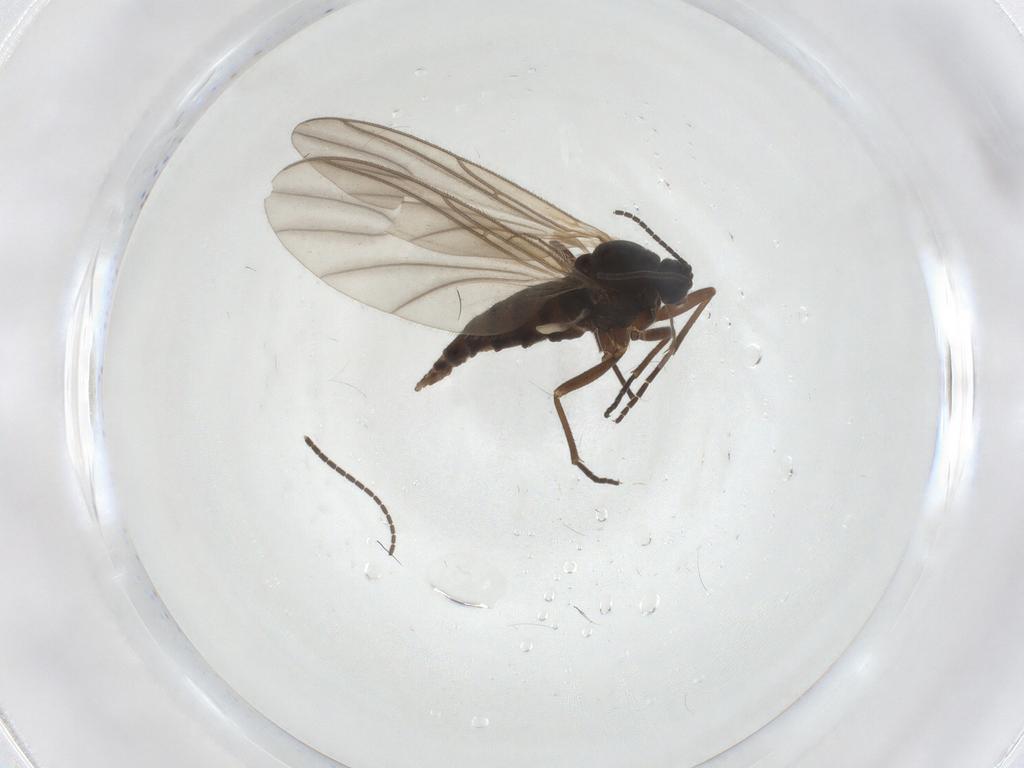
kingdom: Animalia
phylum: Arthropoda
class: Insecta
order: Diptera
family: Sciaridae
